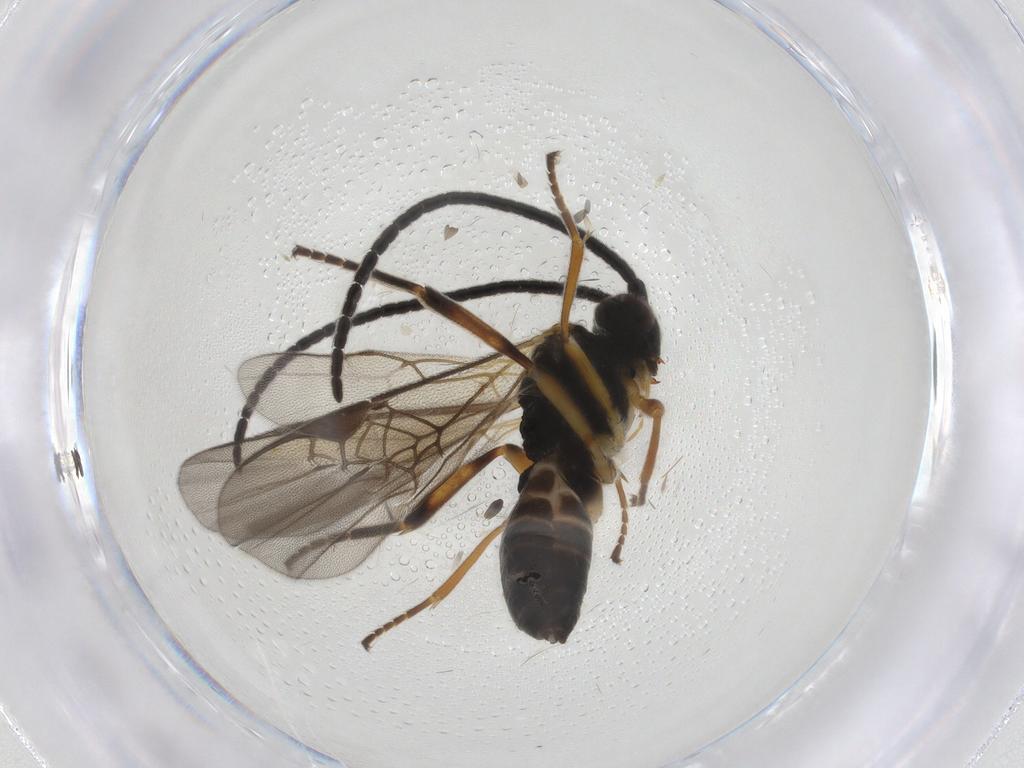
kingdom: Animalia
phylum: Arthropoda
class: Insecta
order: Hymenoptera
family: Braconidae
